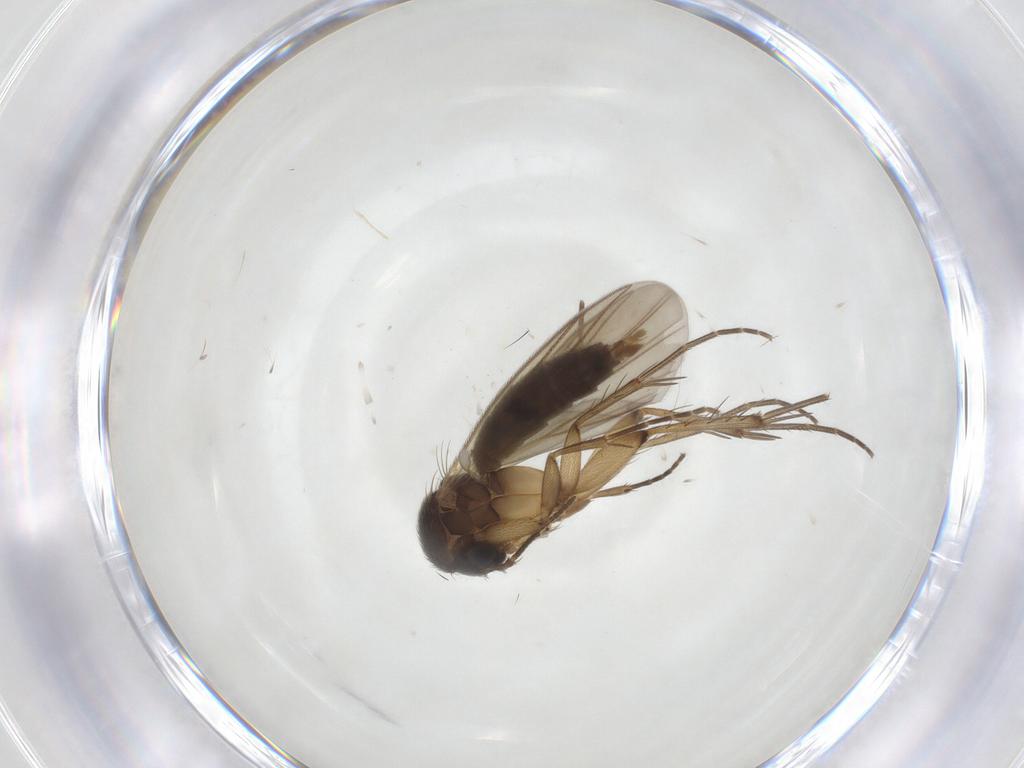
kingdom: Animalia
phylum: Arthropoda
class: Insecta
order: Diptera
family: Mycetophilidae
